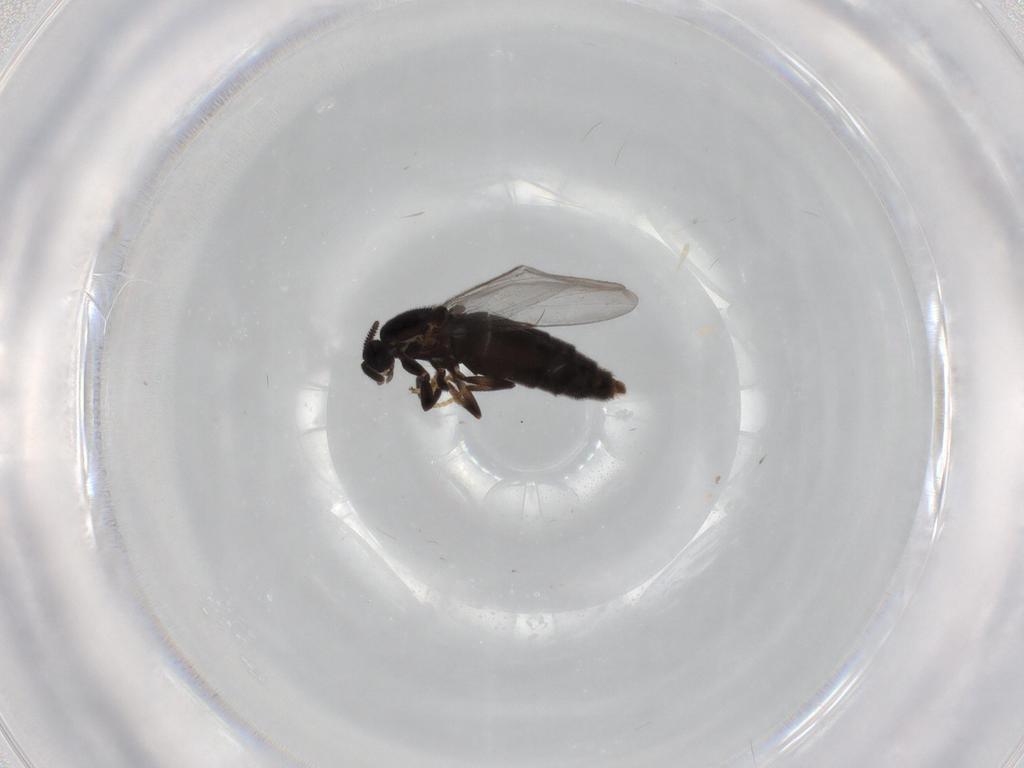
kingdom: Animalia
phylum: Arthropoda
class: Insecta
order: Diptera
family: Scatopsidae
